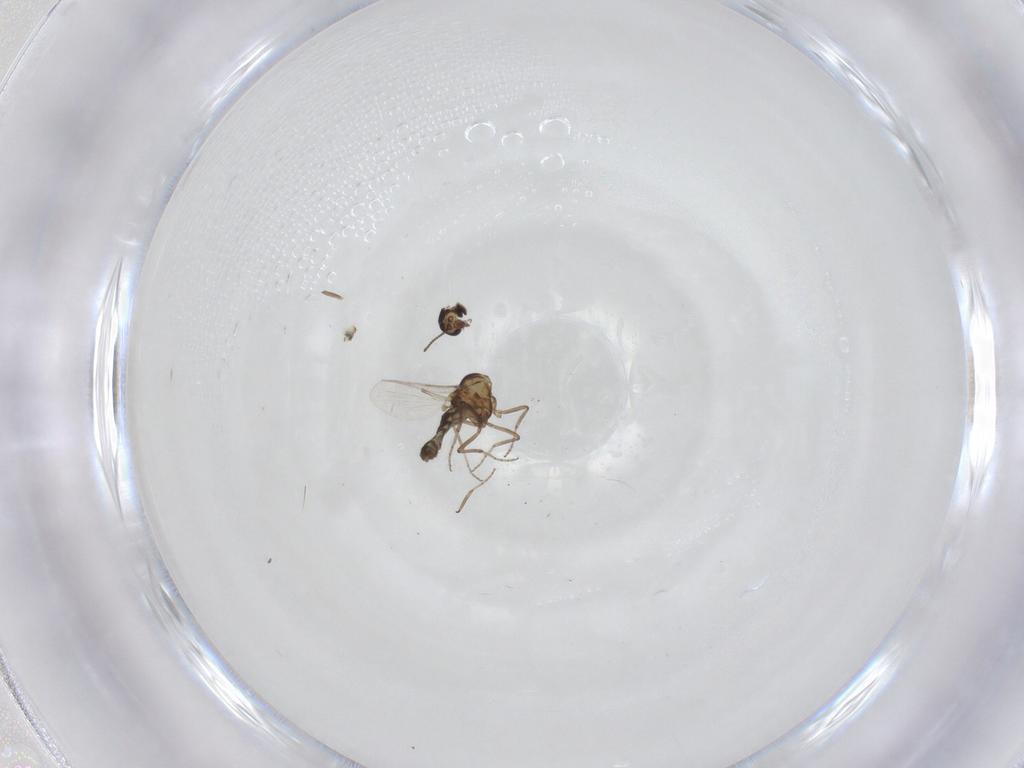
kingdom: Animalia
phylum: Arthropoda
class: Insecta
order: Diptera
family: Ceratopogonidae
